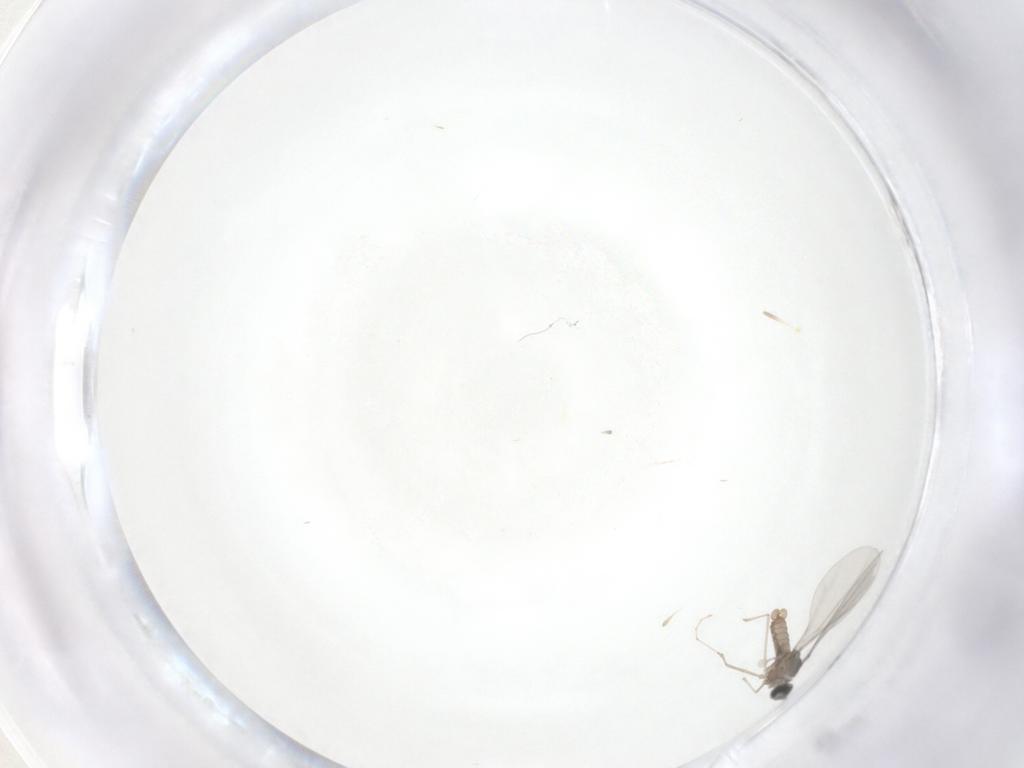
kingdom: Animalia
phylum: Arthropoda
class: Insecta
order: Diptera
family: Cecidomyiidae
